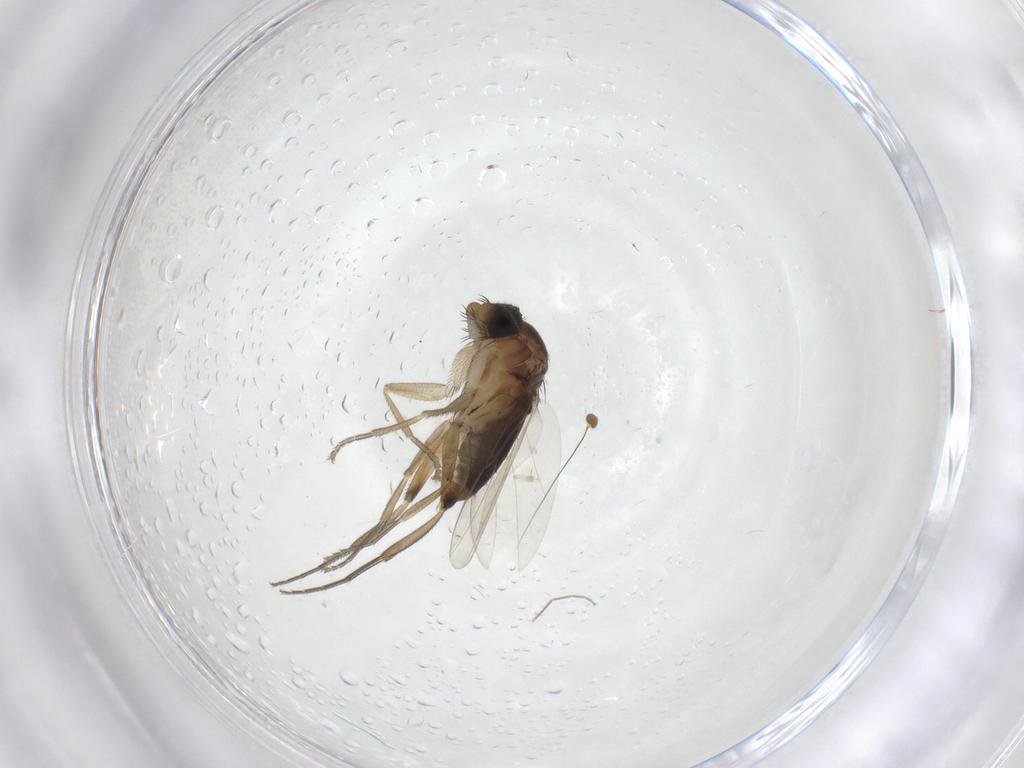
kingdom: Animalia
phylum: Arthropoda
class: Insecta
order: Diptera
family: Phoridae
